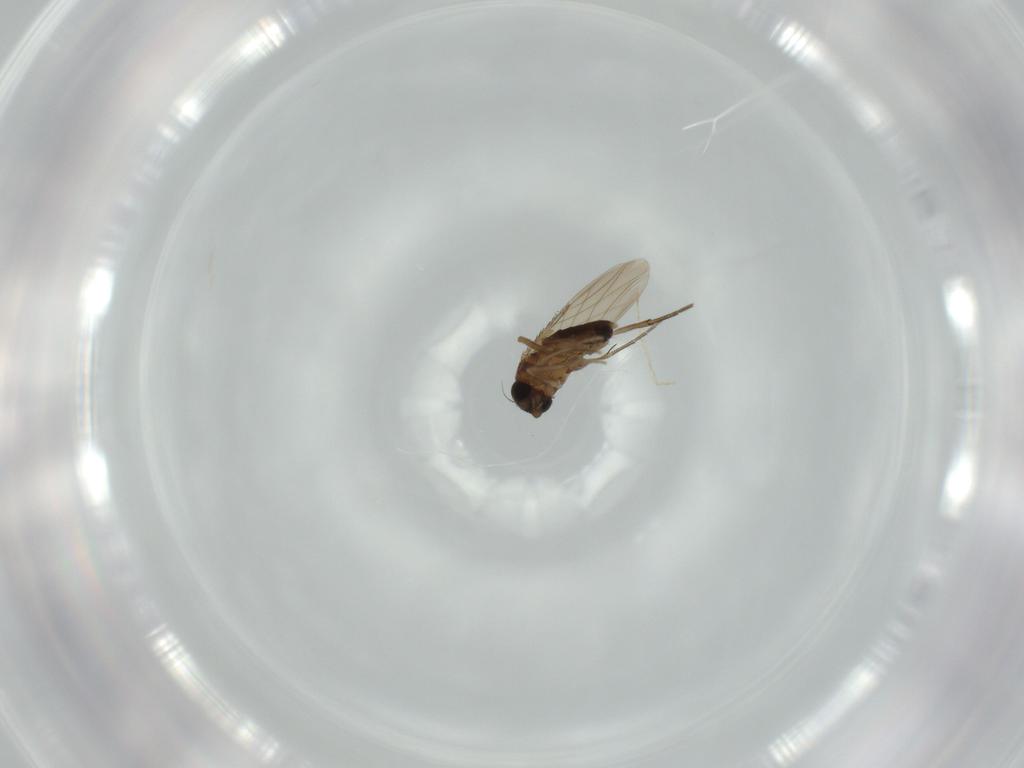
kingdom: Animalia
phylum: Arthropoda
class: Insecta
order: Diptera
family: Phoridae
